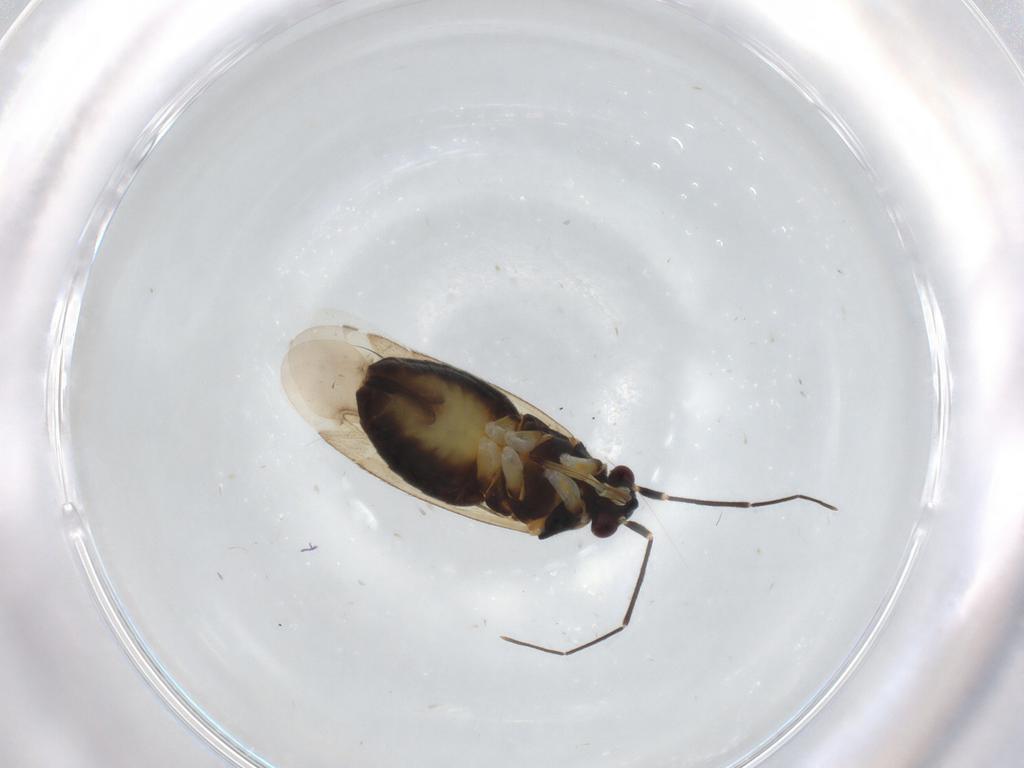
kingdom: Animalia
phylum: Arthropoda
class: Insecta
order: Hemiptera
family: Miridae
